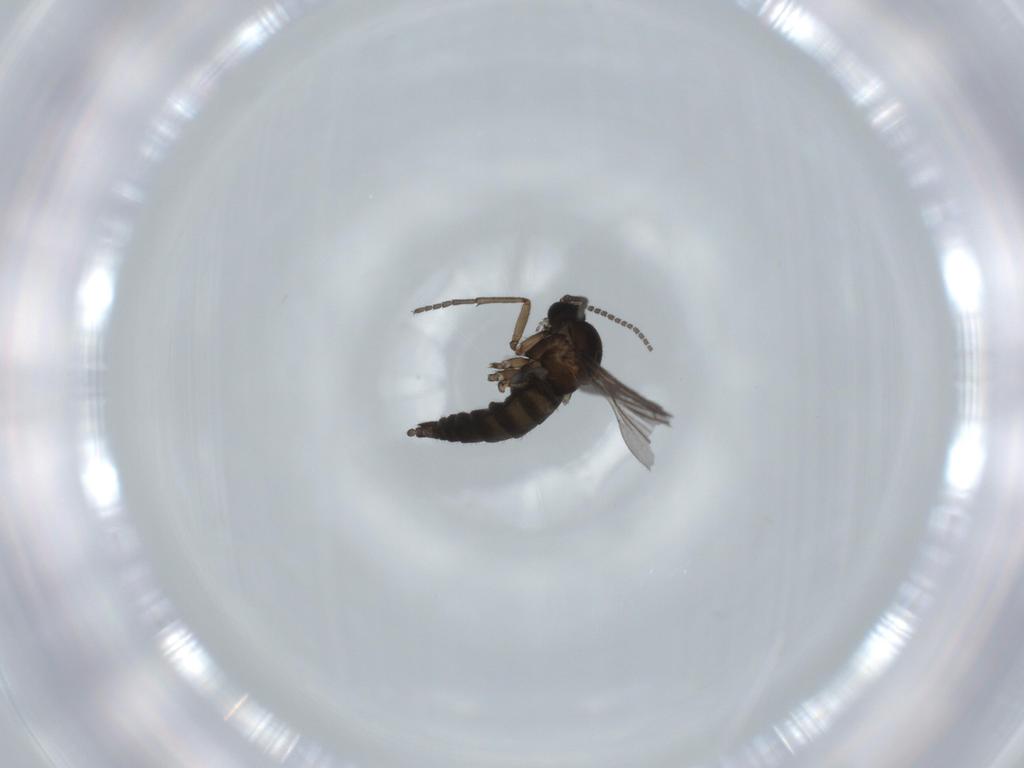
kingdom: Animalia
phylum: Arthropoda
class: Insecta
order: Diptera
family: Sciaridae
